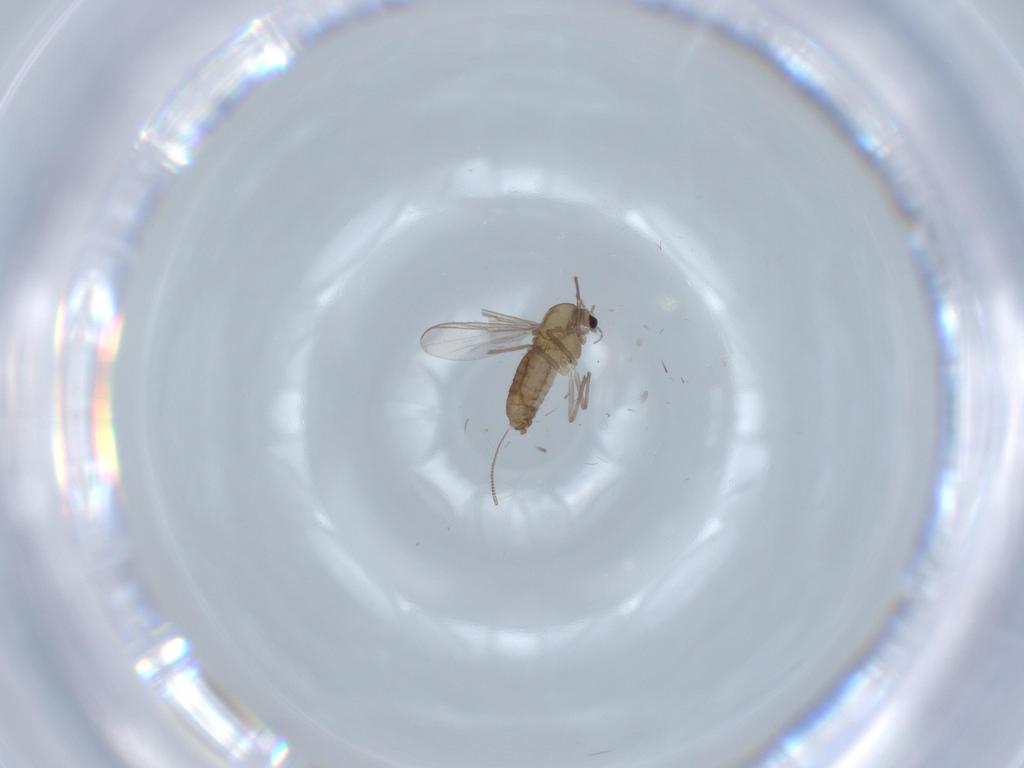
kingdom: Animalia
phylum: Arthropoda
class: Insecta
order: Diptera
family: Chironomidae
